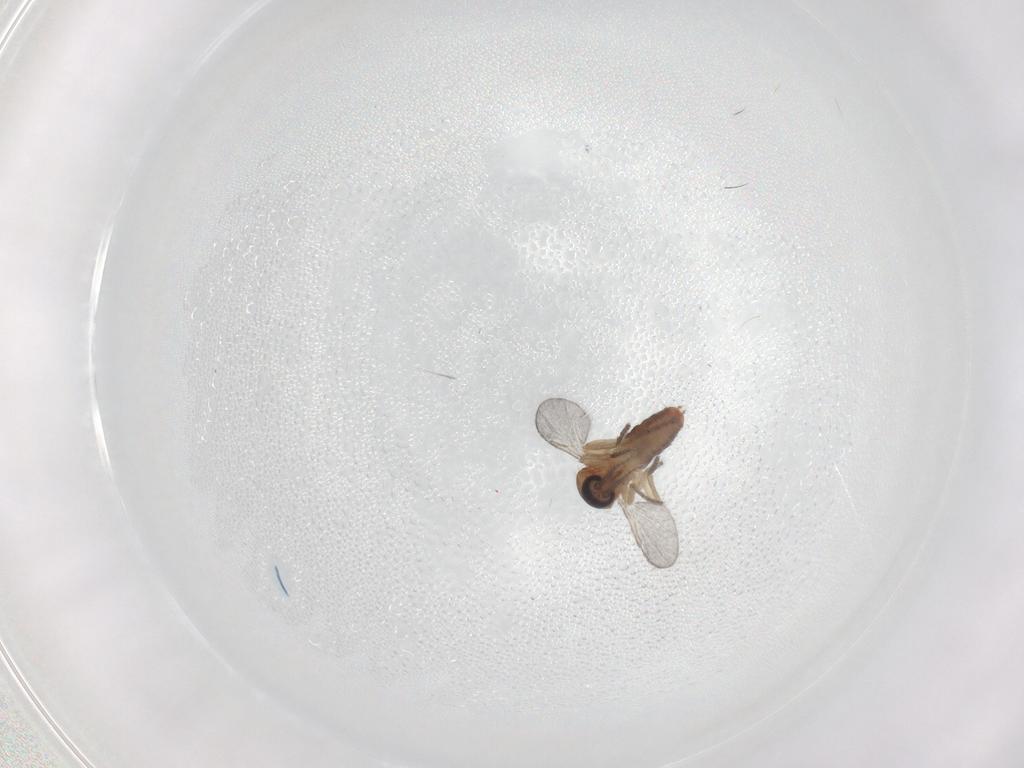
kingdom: Animalia
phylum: Arthropoda
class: Insecta
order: Diptera
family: Ceratopogonidae
